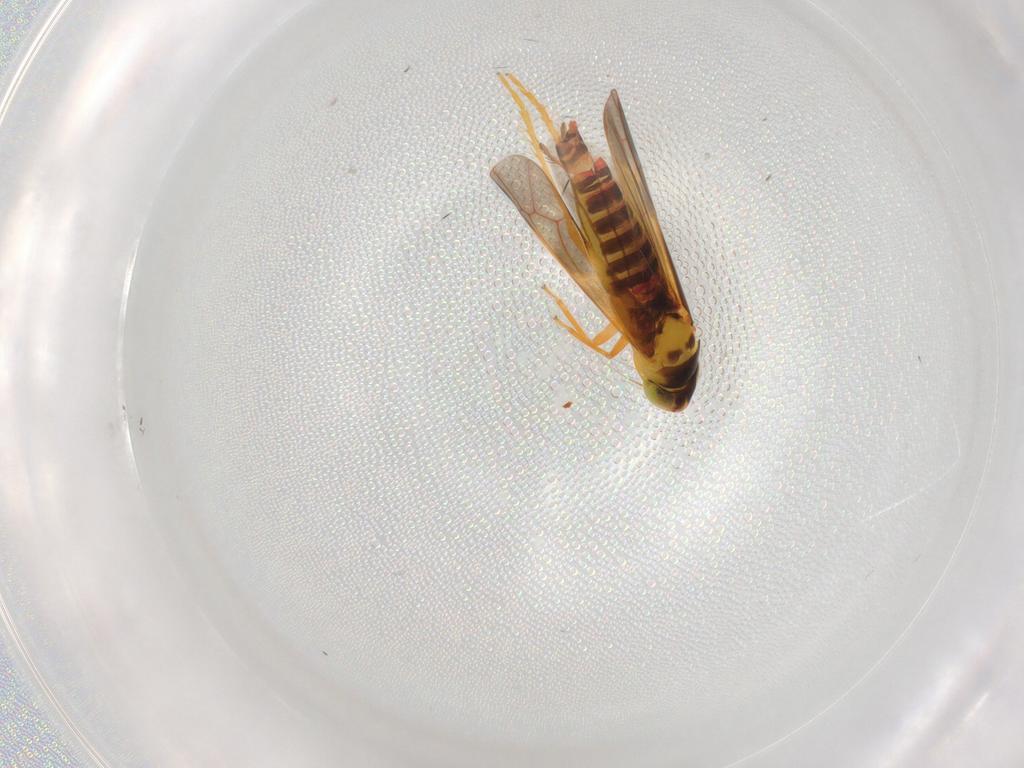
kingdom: Animalia
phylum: Arthropoda
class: Insecta
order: Hemiptera
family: Cicadellidae
